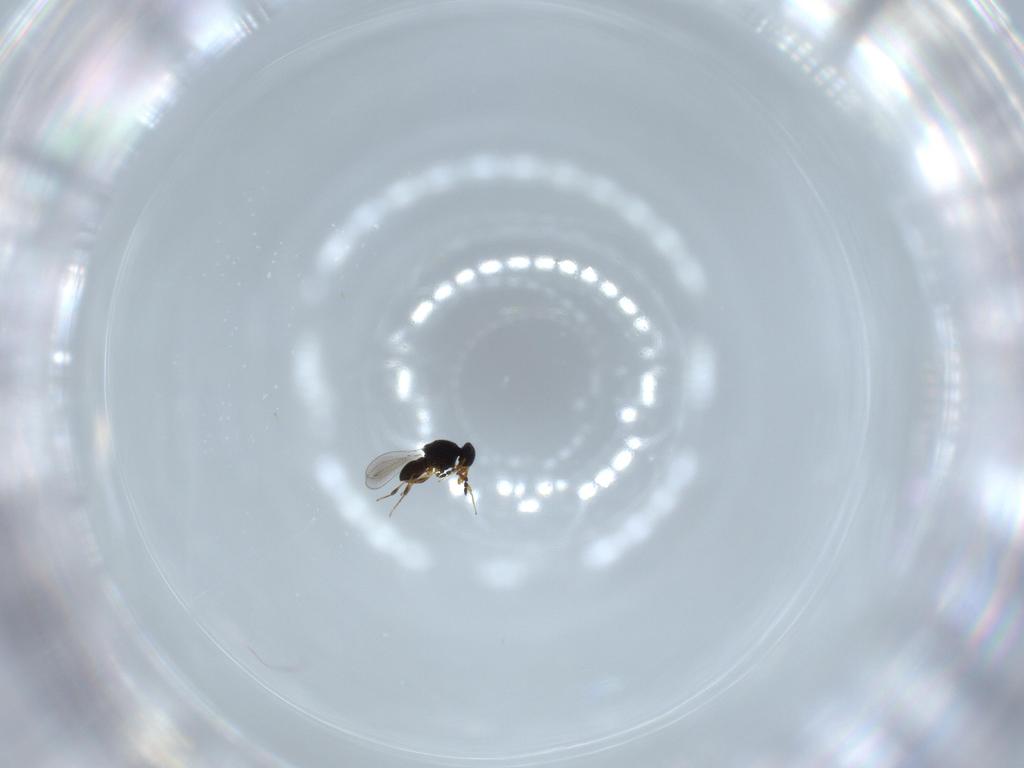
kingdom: Animalia
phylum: Arthropoda
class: Insecta
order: Hymenoptera
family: Platygastridae
